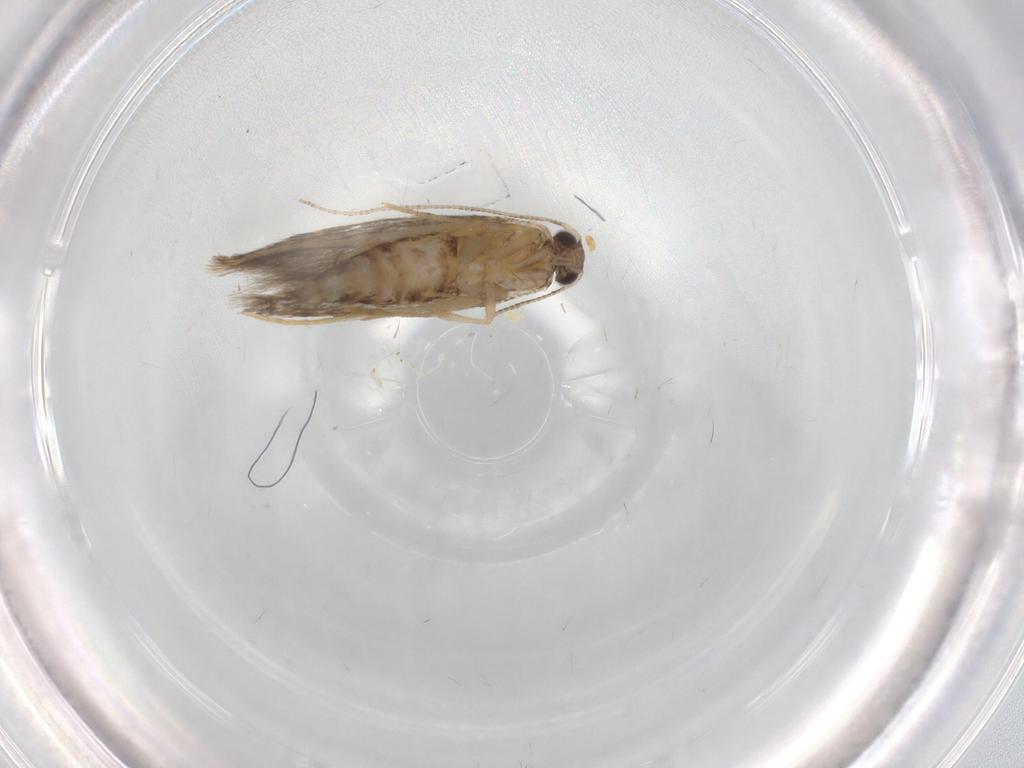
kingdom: Animalia
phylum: Arthropoda
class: Insecta
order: Lepidoptera
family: Tineidae
